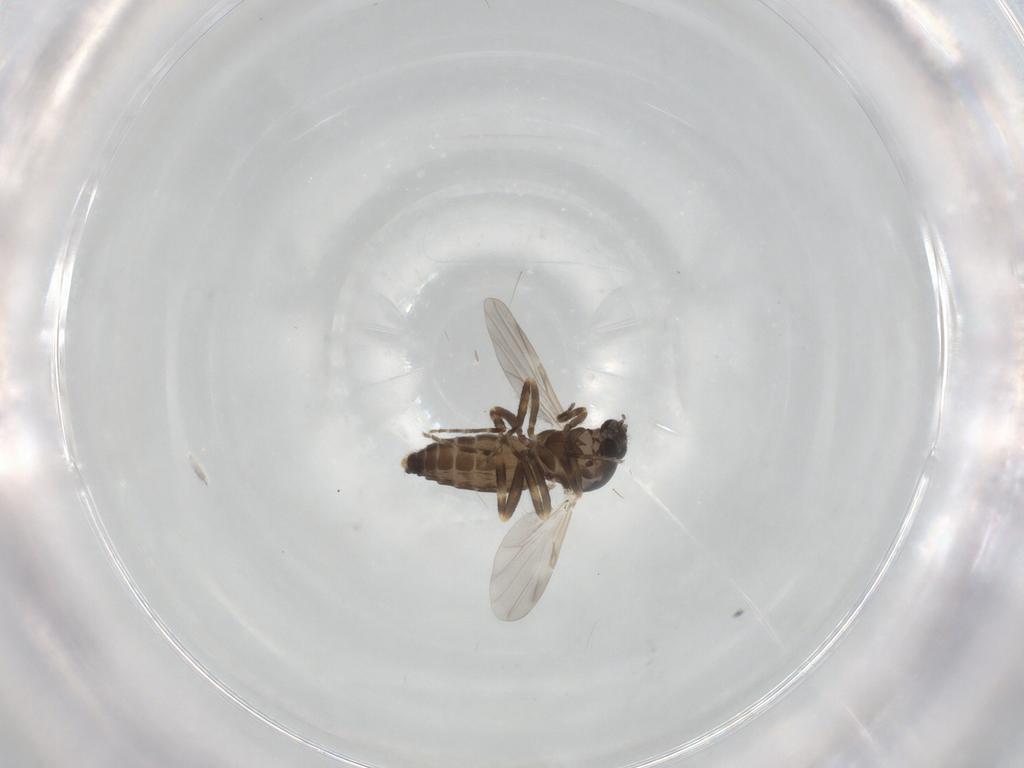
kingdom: Animalia
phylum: Arthropoda
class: Insecta
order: Diptera
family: Ceratopogonidae
